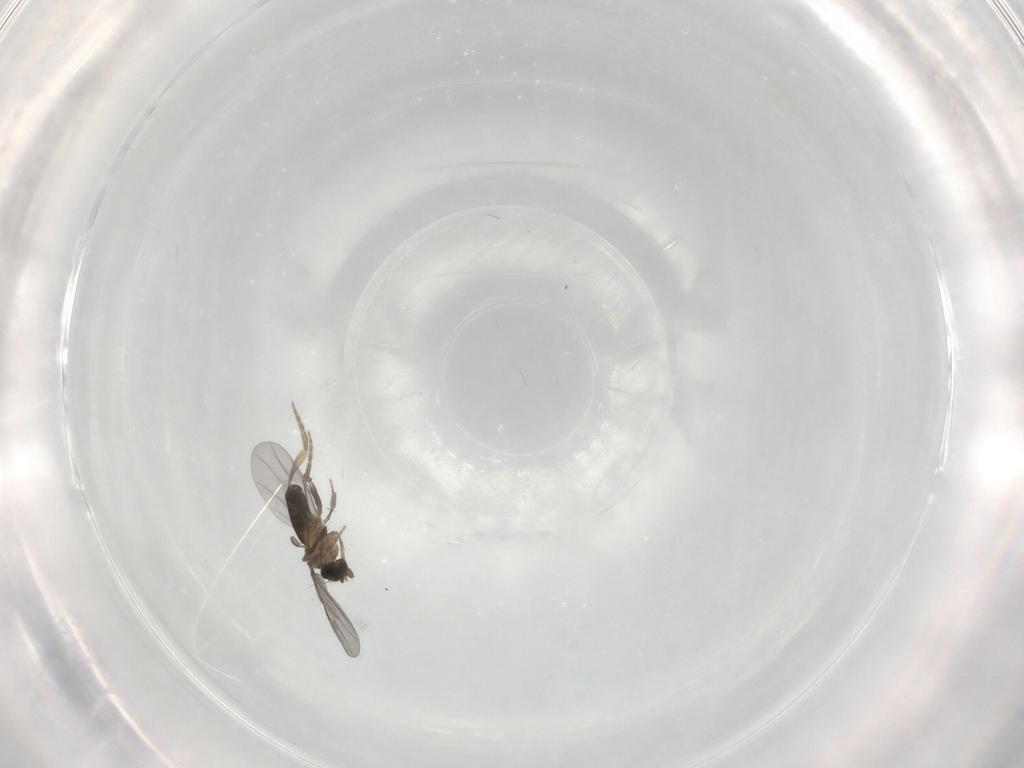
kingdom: Animalia
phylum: Arthropoda
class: Insecta
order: Diptera
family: Dolichopodidae
